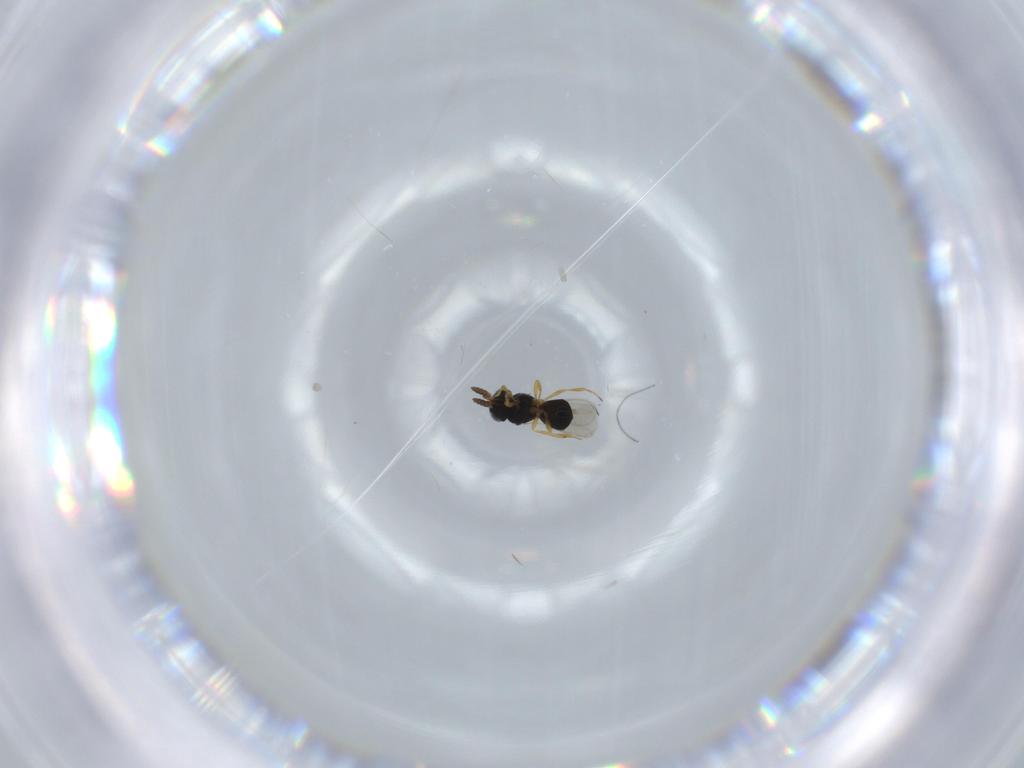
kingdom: Animalia
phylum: Arthropoda
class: Insecta
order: Hymenoptera
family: Scelionidae
